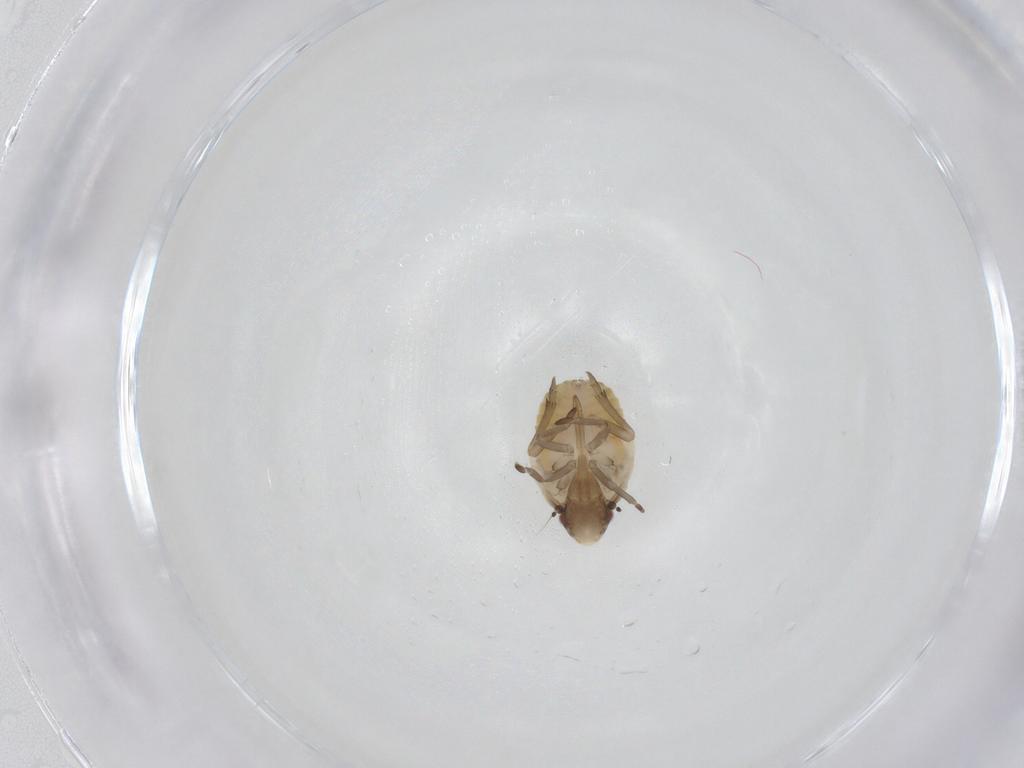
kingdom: Animalia
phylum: Arthropoda
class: Insecta
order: Hemiptera
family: Flatidae
